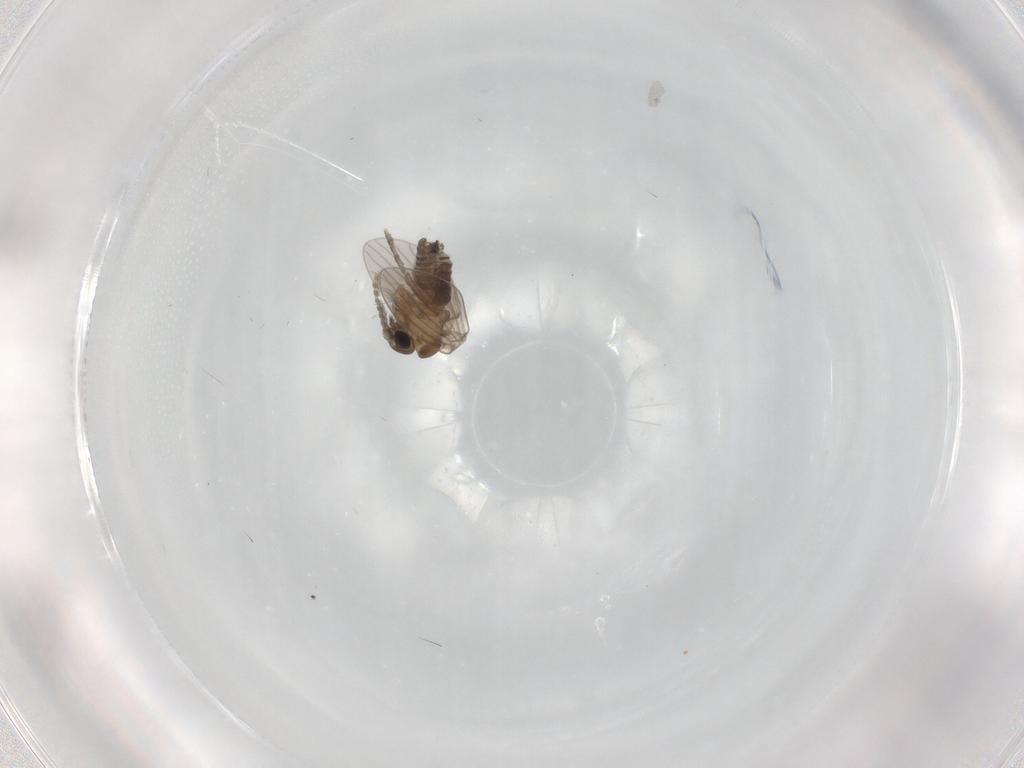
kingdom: Animalia
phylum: Arthropoda
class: Insecta
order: Diptera
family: Psychodidae
